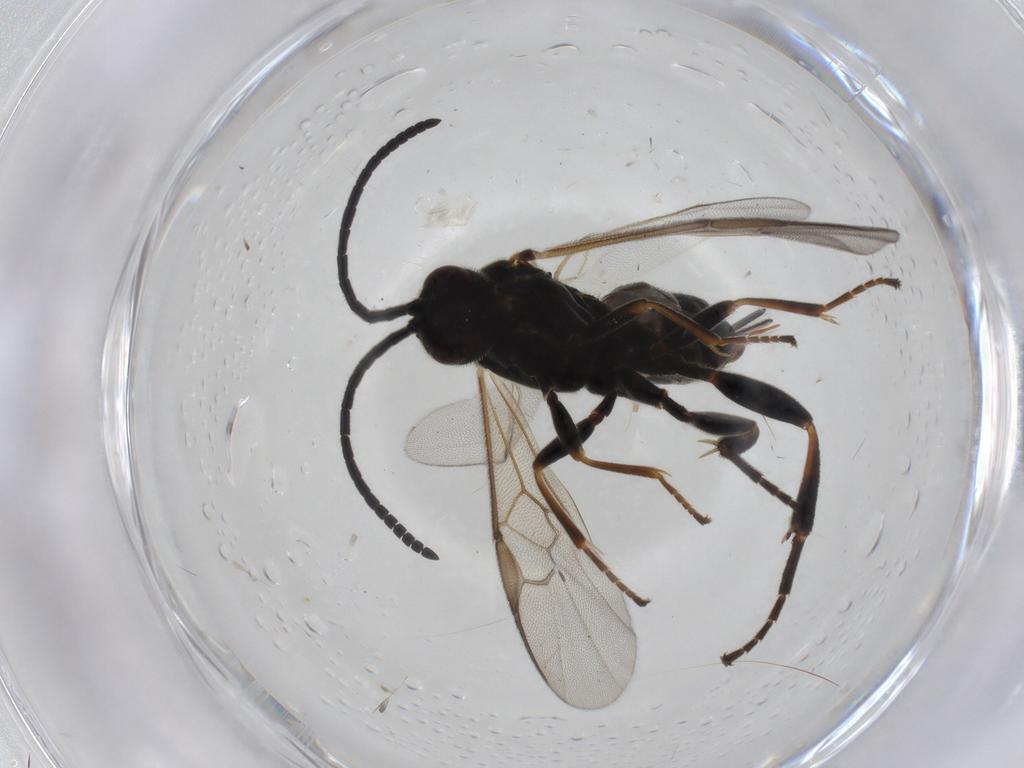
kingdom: Animalia
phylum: Arthropoda
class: Insecta
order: Hymenoptera
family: Braconidae
